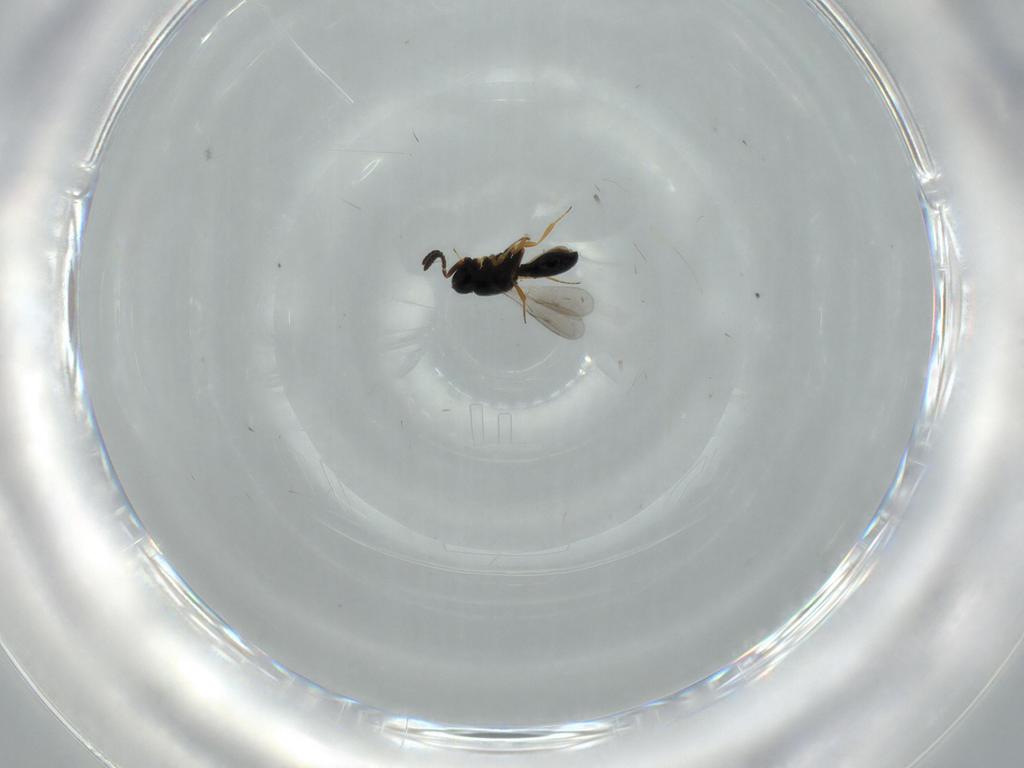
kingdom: Animalia
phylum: Arthropoda
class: Insecta
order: Hymenoptera
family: Scelionidae
